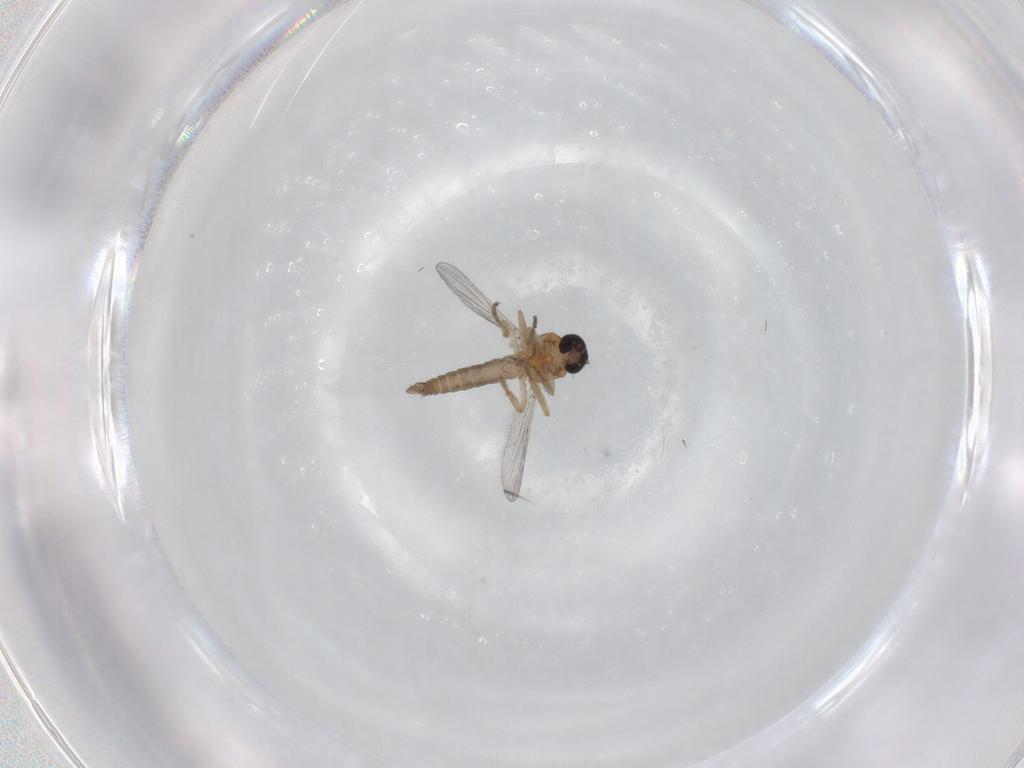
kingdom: Animalia
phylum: Arthropoda
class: Insecta
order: Diptera
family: Ceratopogonidae
